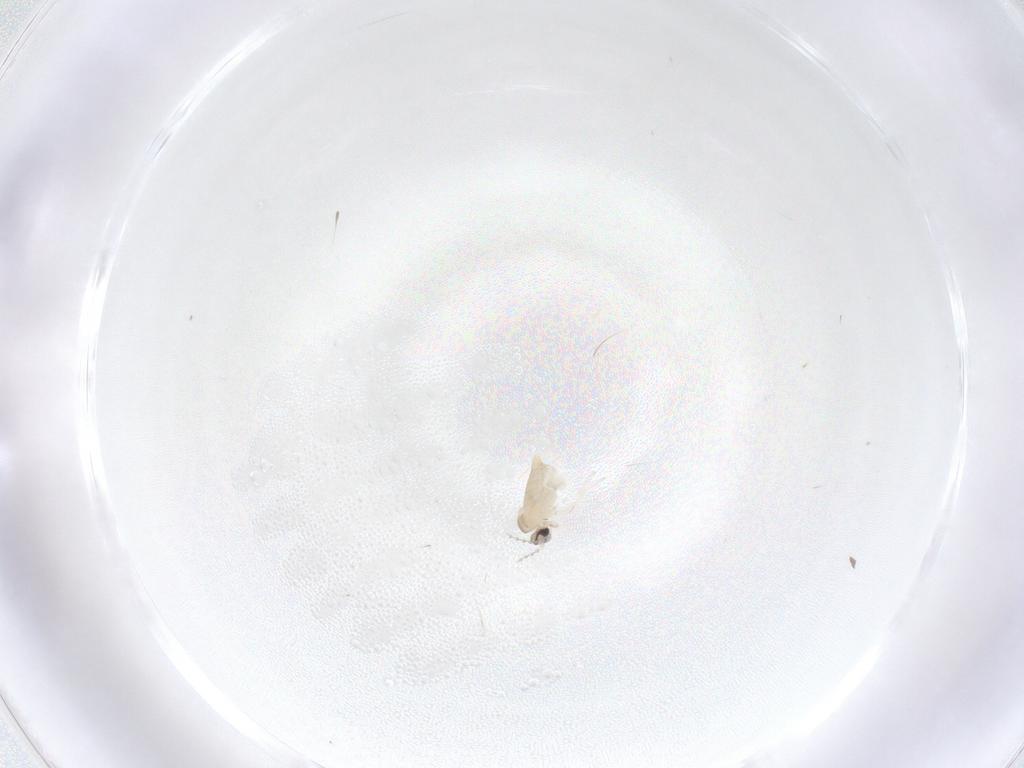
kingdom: Animalia
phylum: Arthropoda
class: Insecta
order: Diptera
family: Cecidomyiidae
